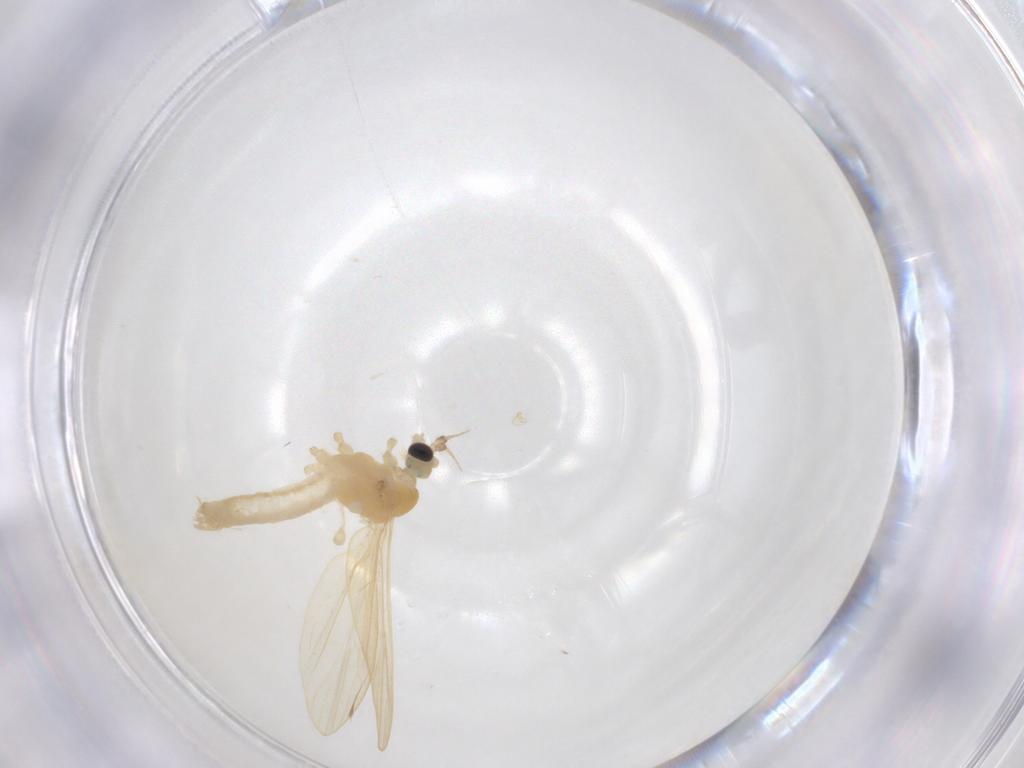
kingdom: Animalia
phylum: Arthropoda
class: Insecta
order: Diptera
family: Limoniidae
